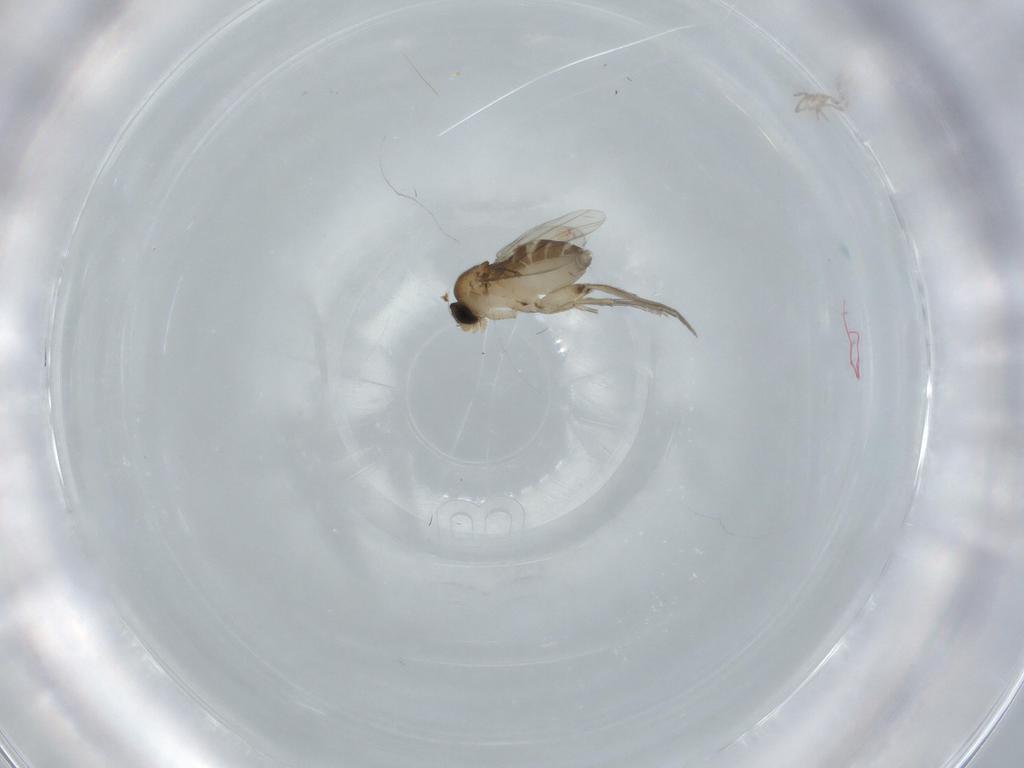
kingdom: Animalia
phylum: Arthropoda
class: Insecta
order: Diptera
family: Phoridae
